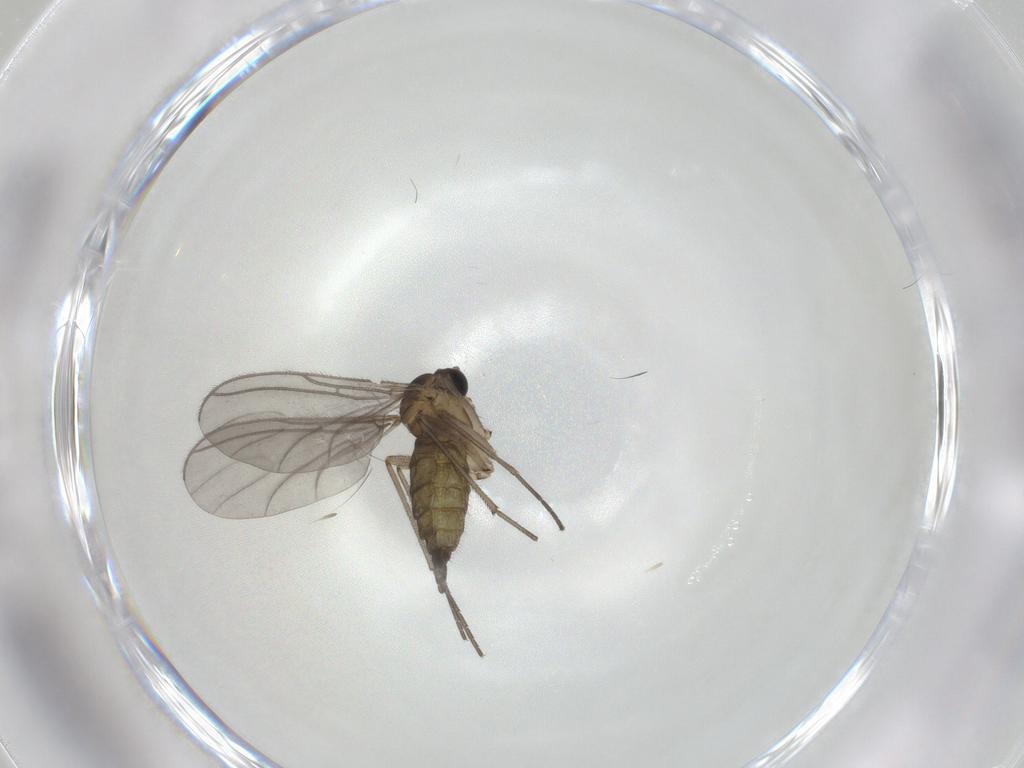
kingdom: Animalia
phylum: Arthropoda
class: Insecta
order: Diptera
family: Sciaridae
